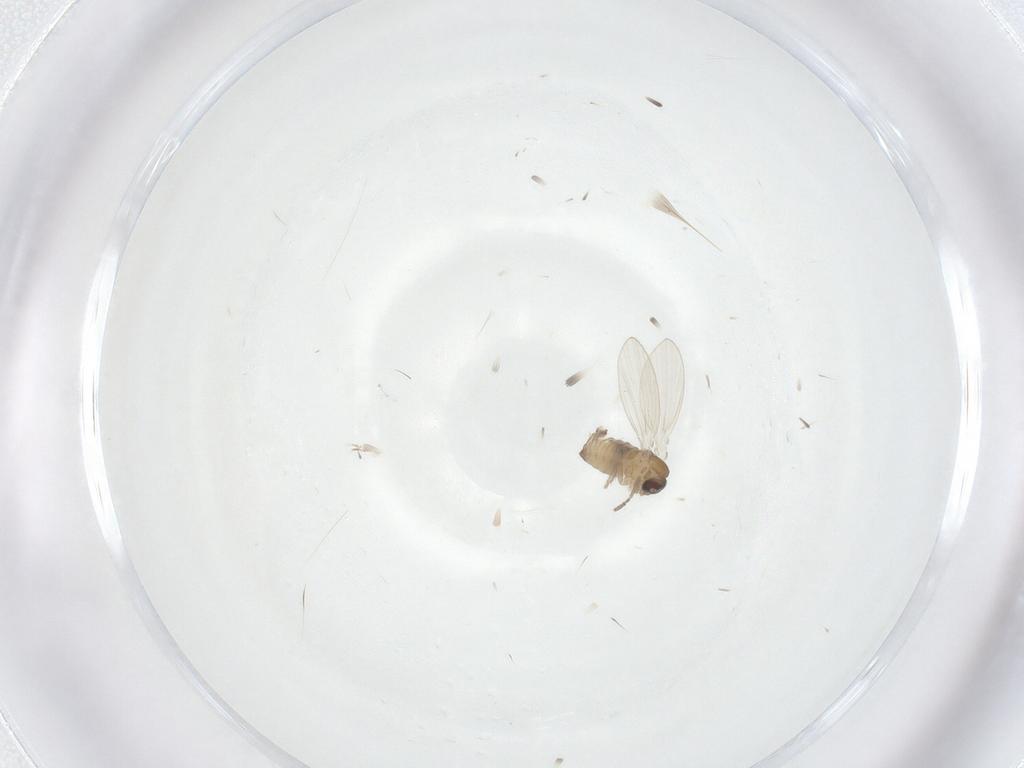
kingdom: Animalia
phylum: Arthropoda
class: Insecta
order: Diptera
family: Psychodidae
